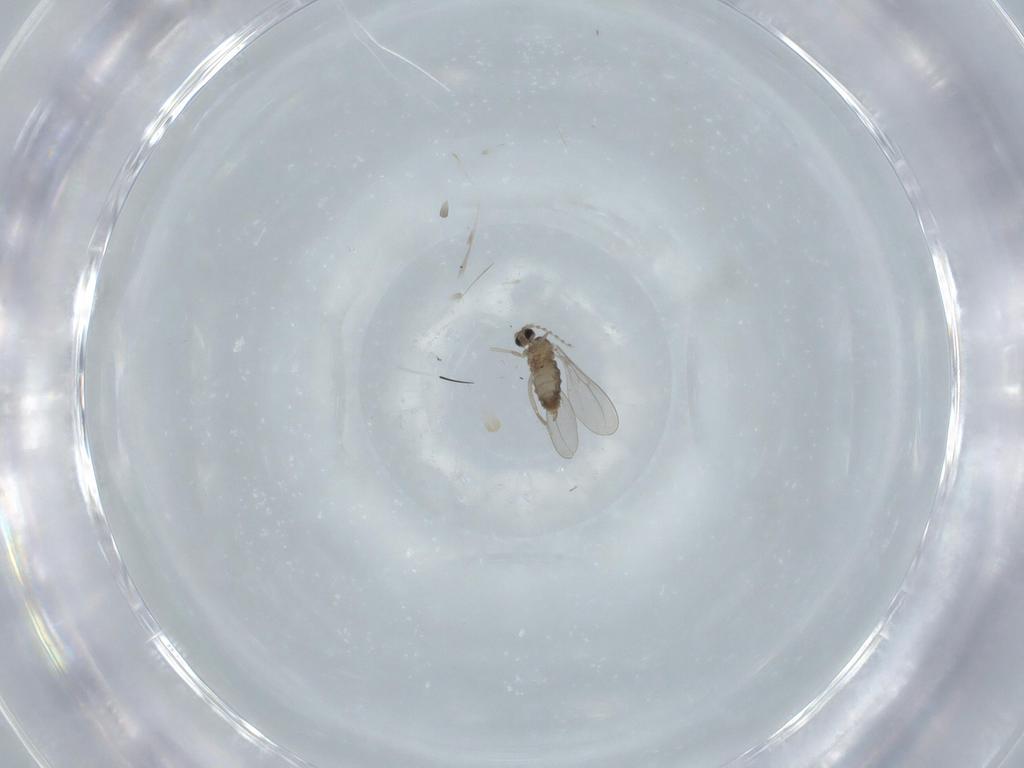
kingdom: Animalia
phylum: Arthropoda
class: Insecta
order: Diptera
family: Cecidomyiidae
